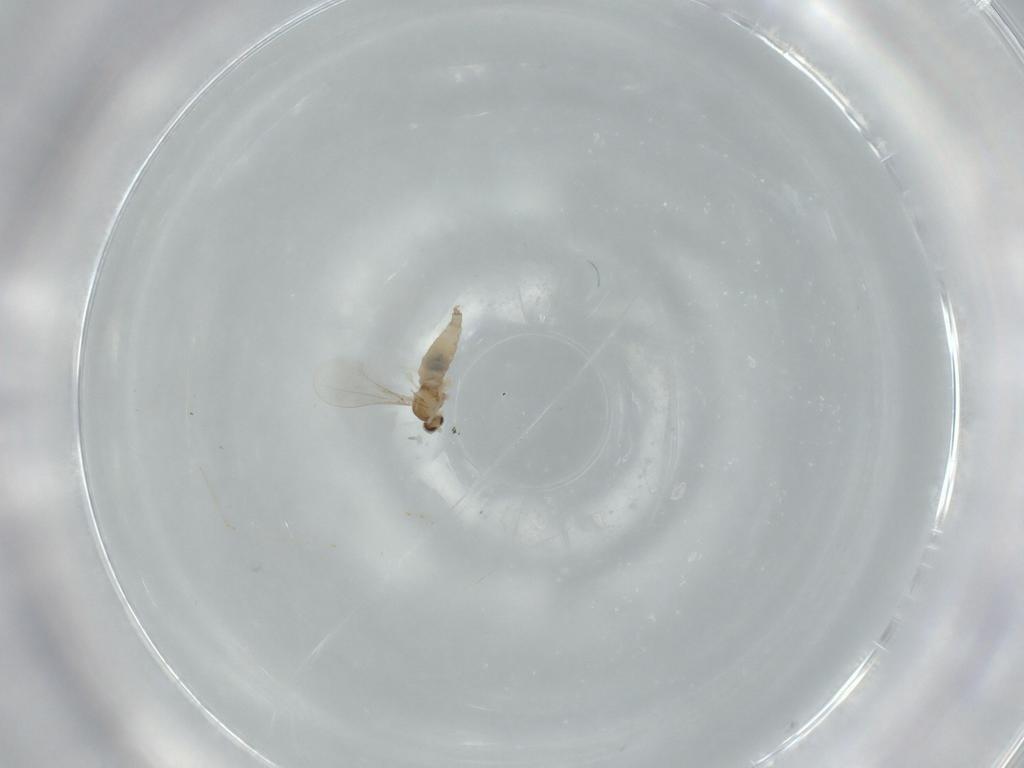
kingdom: Animalia
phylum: Arthropoda
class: Insecta
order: Diptera
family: Cecidomyiidae
